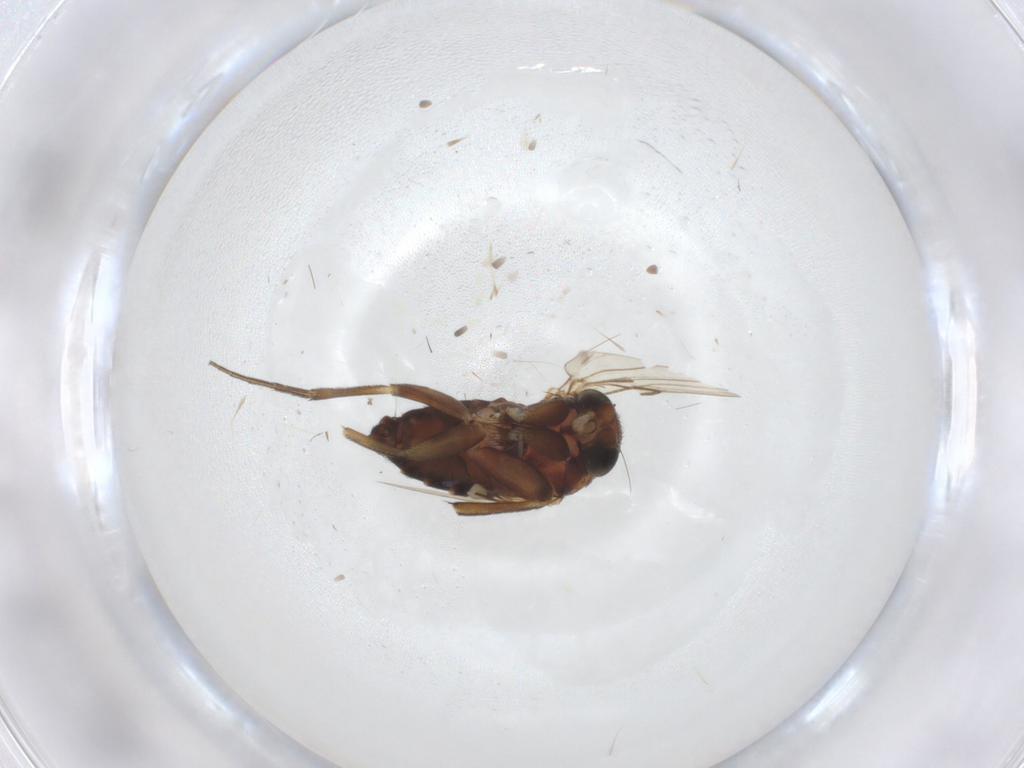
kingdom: Animalia
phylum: Arthropoda
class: Insecta
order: Diptera
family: Phoridae
